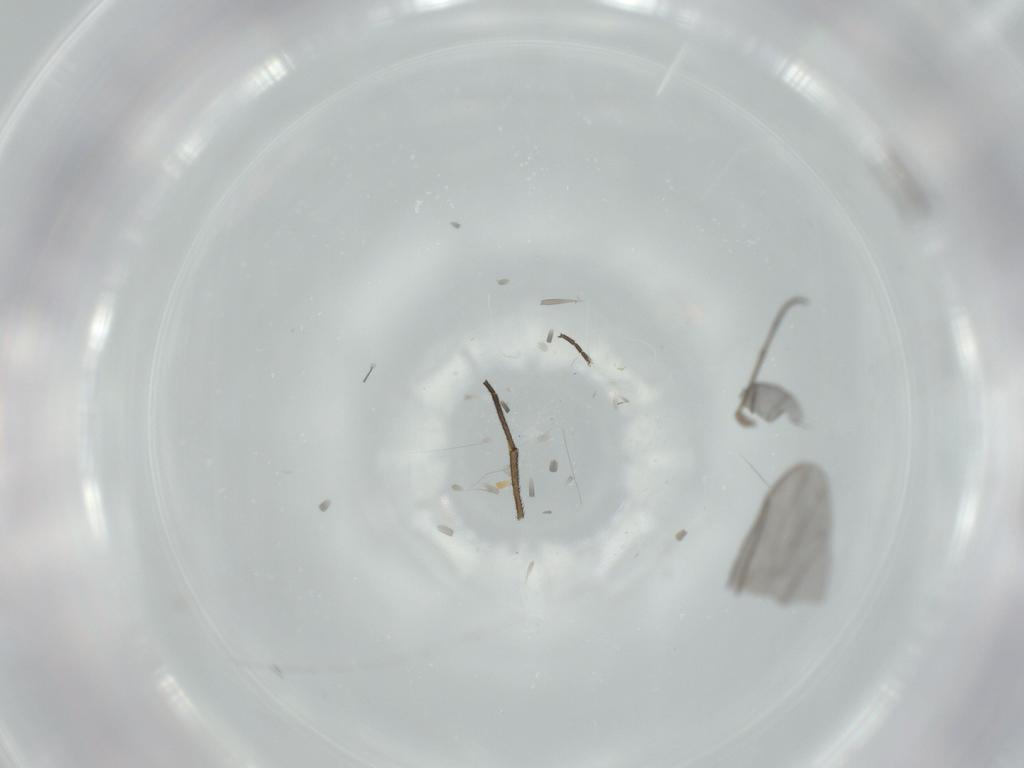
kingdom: Animalia
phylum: Arthropoda
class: Insecta
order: Diptera
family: Sciaridae
